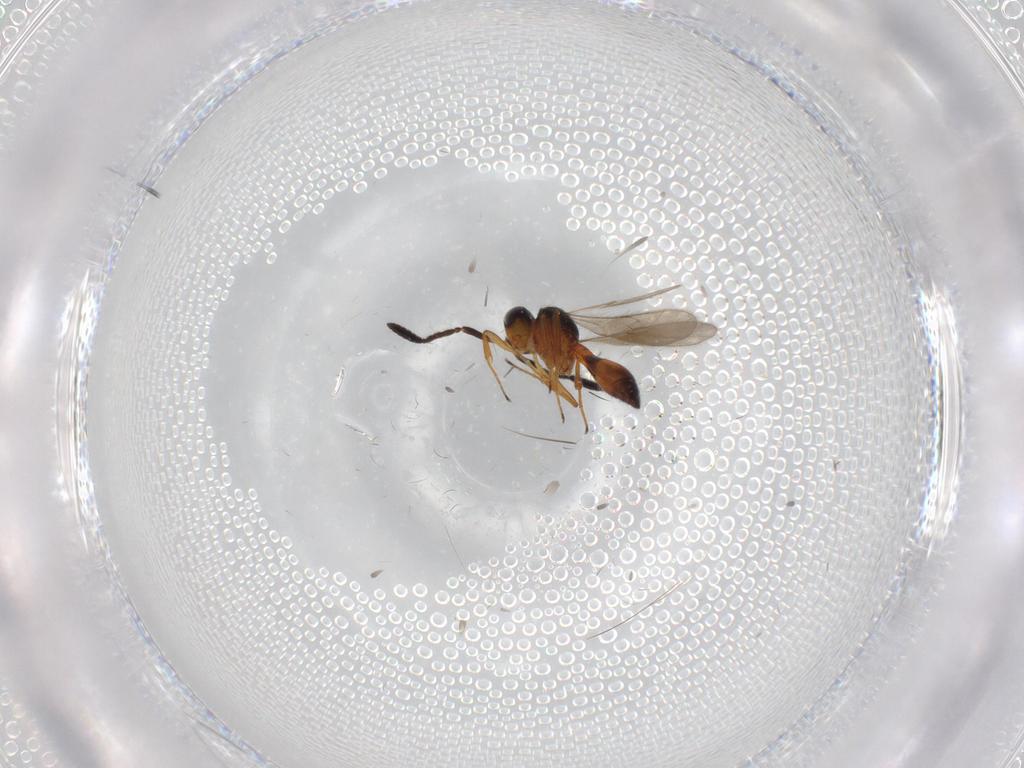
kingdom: Animalia
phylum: Arthropoda
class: Insecta
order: Hymenoptera
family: Scelionidae
